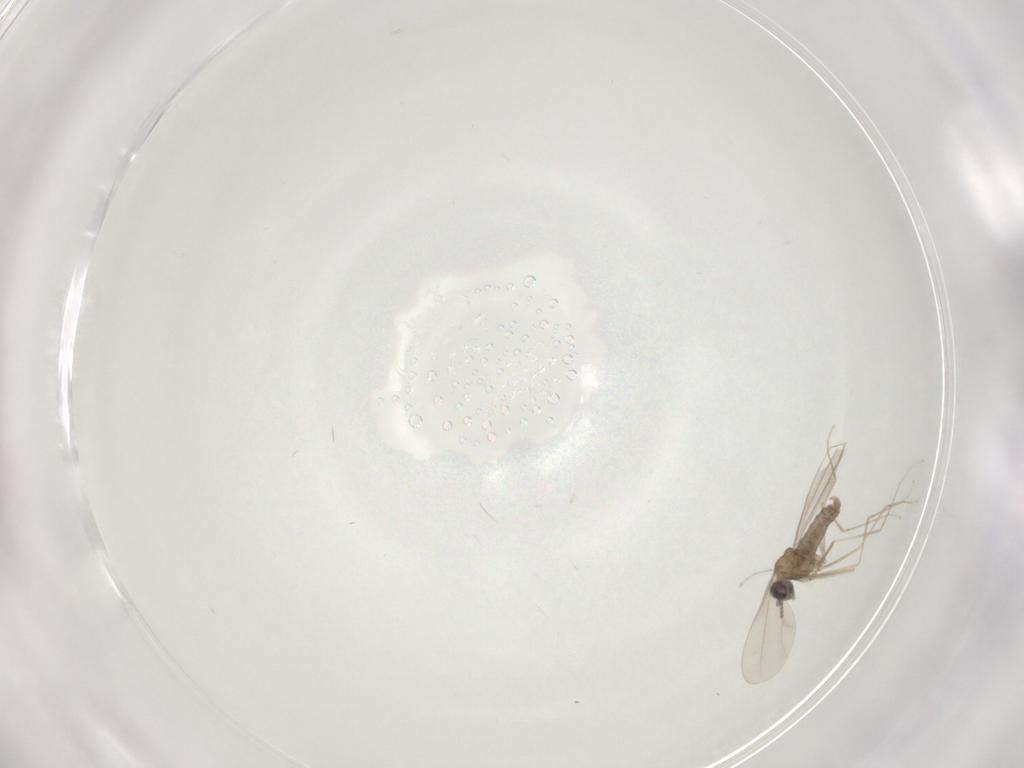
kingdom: Animalia
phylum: Arthropoda
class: Insecta
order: Diptera
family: Cecidomyiidae
